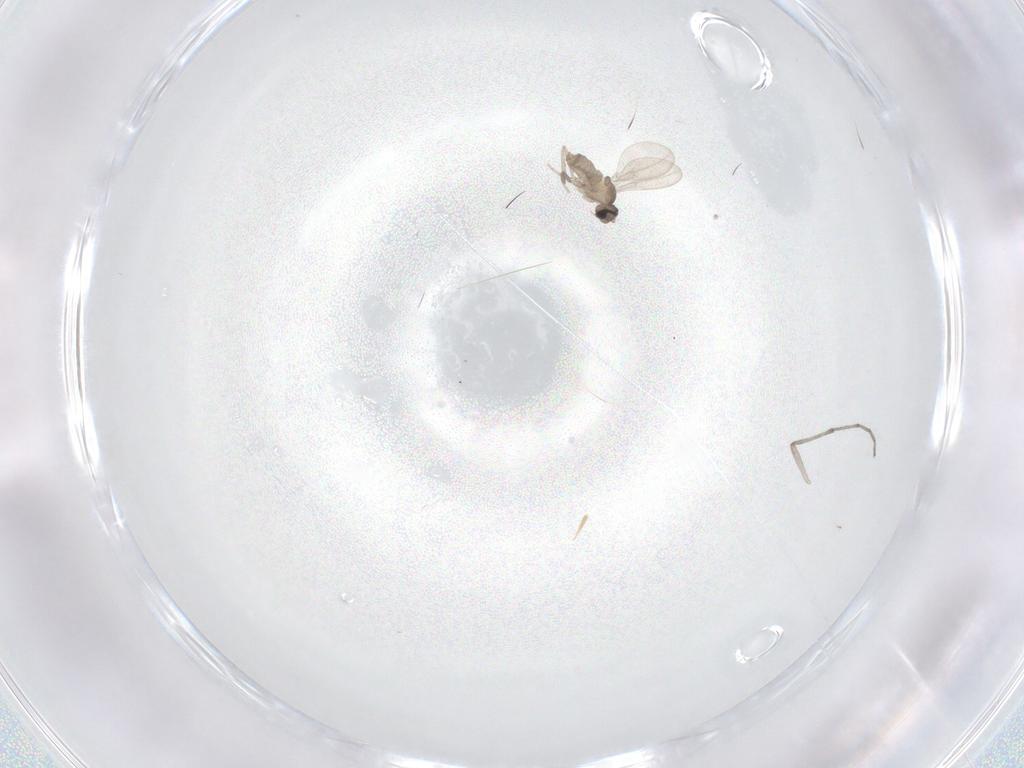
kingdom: Animalia
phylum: Arthropoda
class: Insecta
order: Diptera
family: Chironomidae
